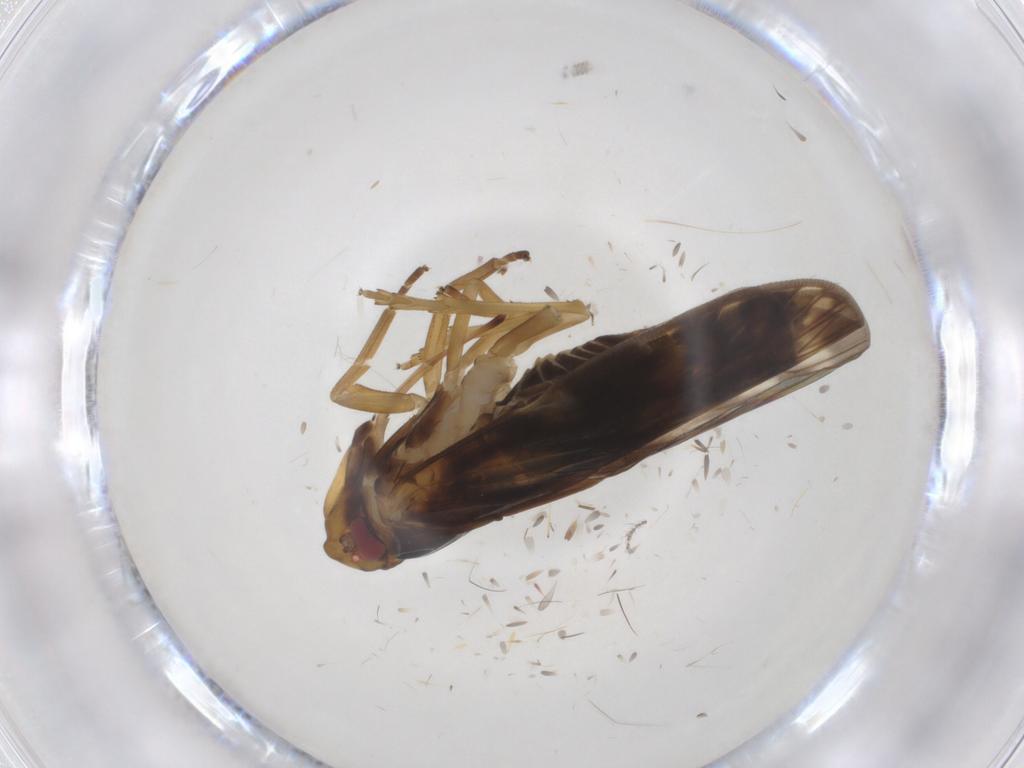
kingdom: Animalia
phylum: Arthropoda
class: Insecta
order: Hemiptera
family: Cixiidae
